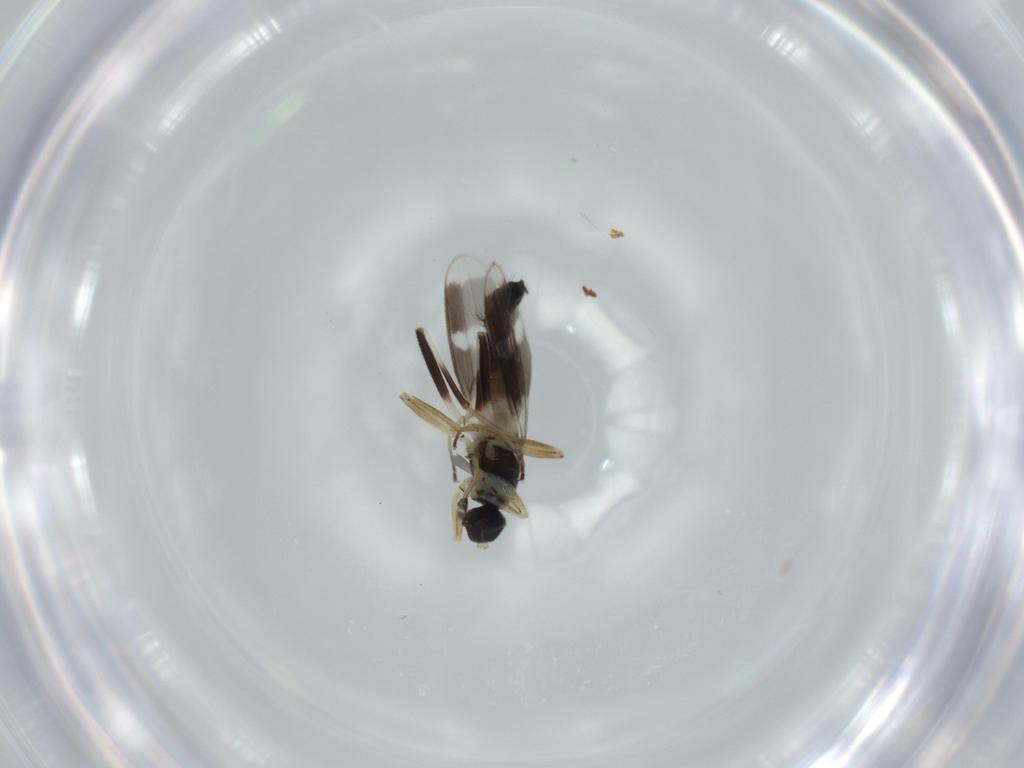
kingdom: Animalia
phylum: Arthropoda
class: Insecta
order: Diptera
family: Hybotidae
